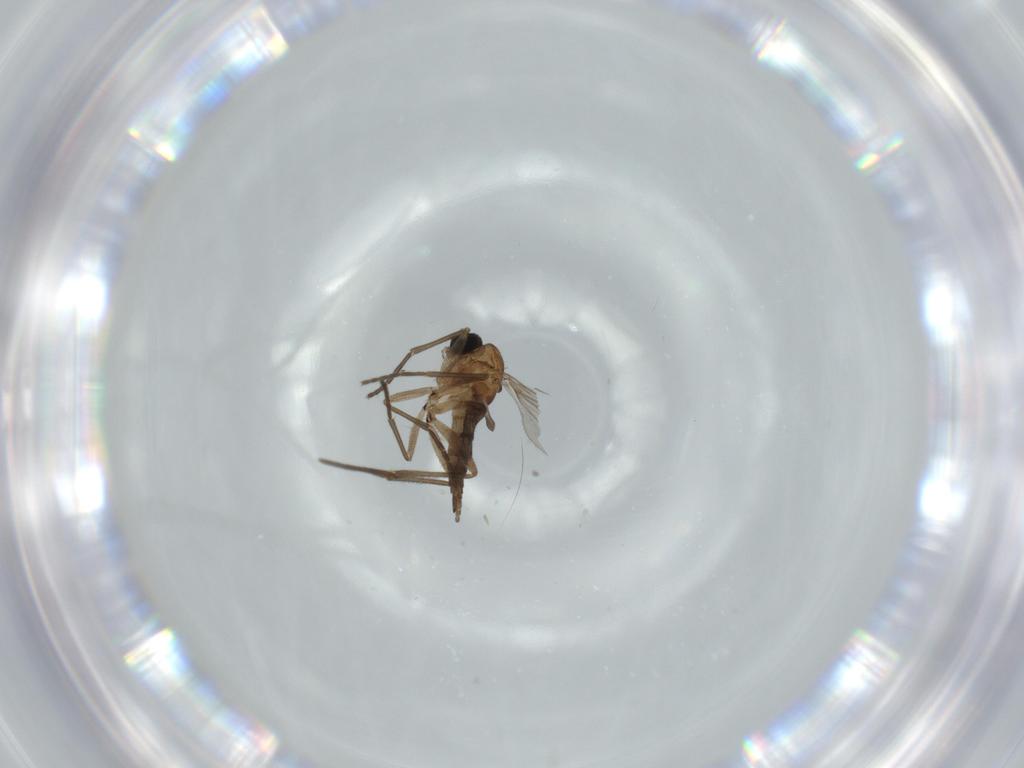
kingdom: Animalia
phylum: Arthropoda
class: Insecta
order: Diptera
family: Sciaridae
